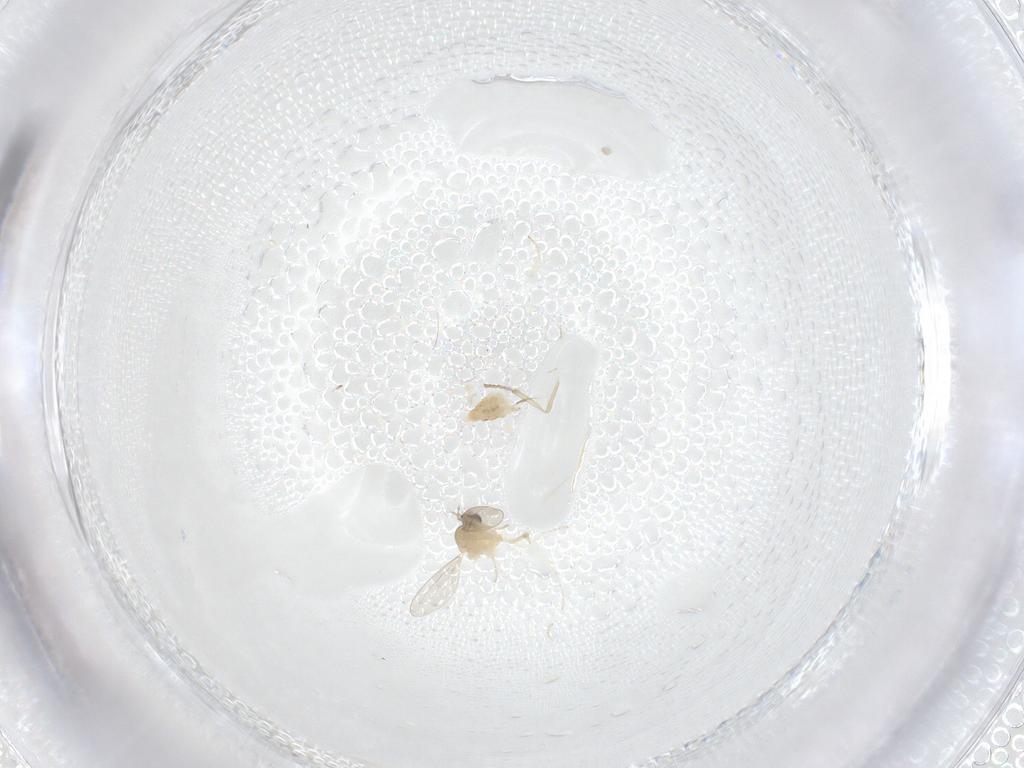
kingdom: Animalia
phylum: Arthropoda
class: Insecta
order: Diptera
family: Cecidomyiidae
